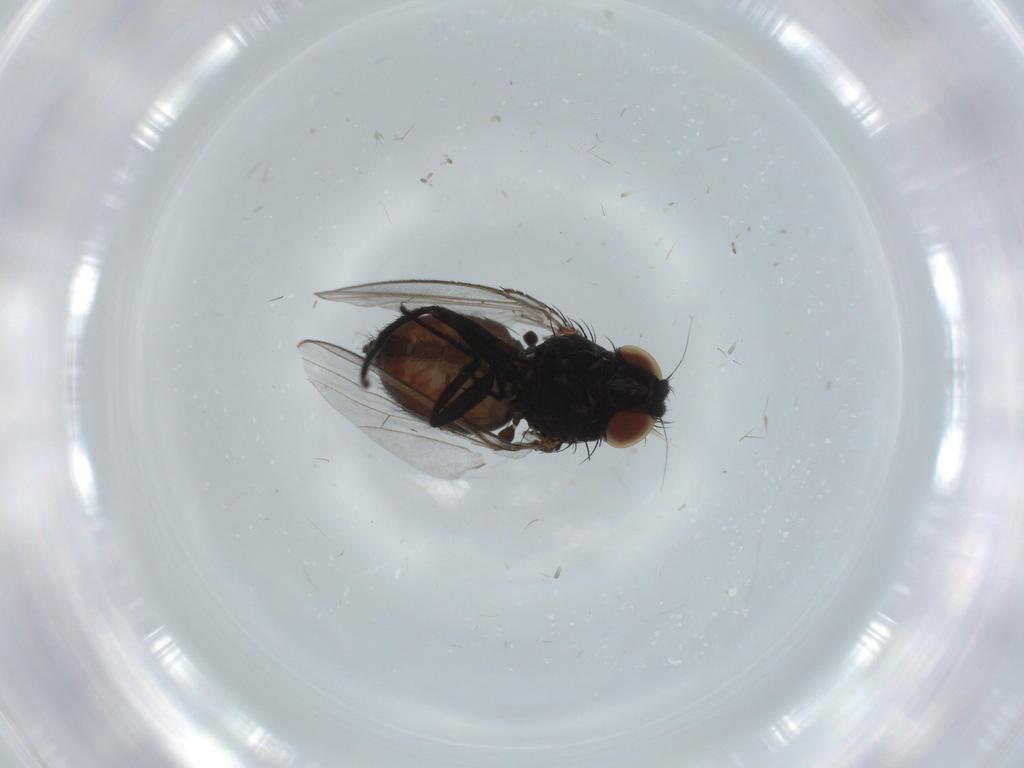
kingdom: Animalia
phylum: Arthropoda
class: Insecta
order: Diptera
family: Milichiidae
